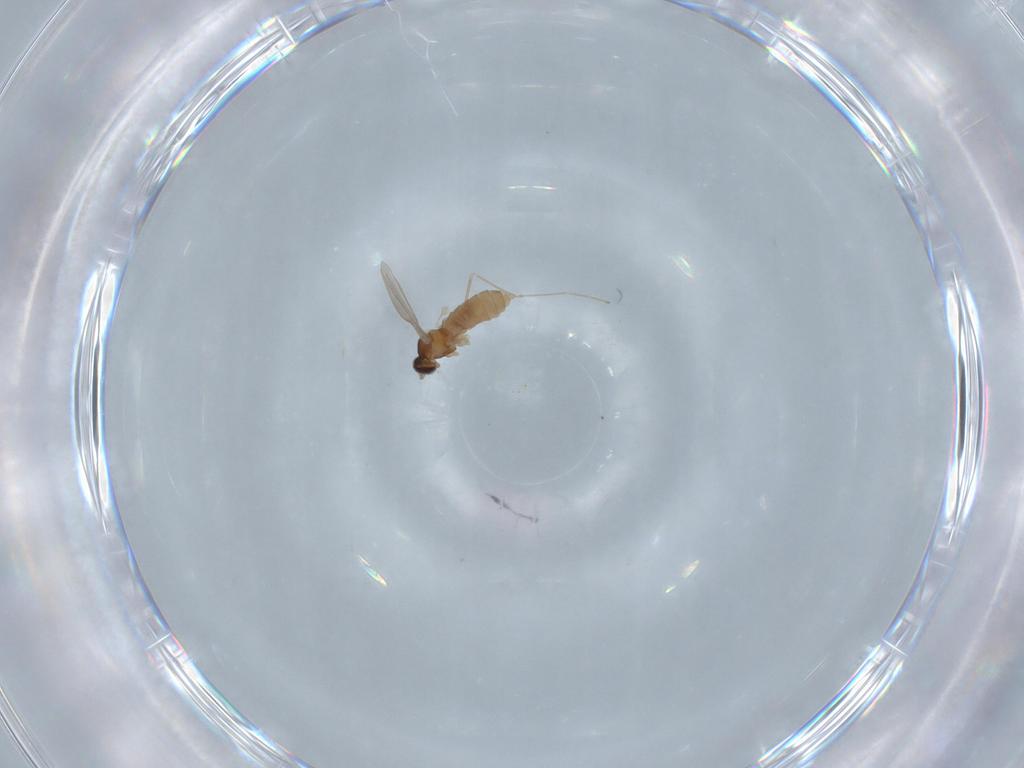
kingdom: Animalia
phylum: Arthropoda
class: Insecta
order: Diptera
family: Cecidomyiidae
